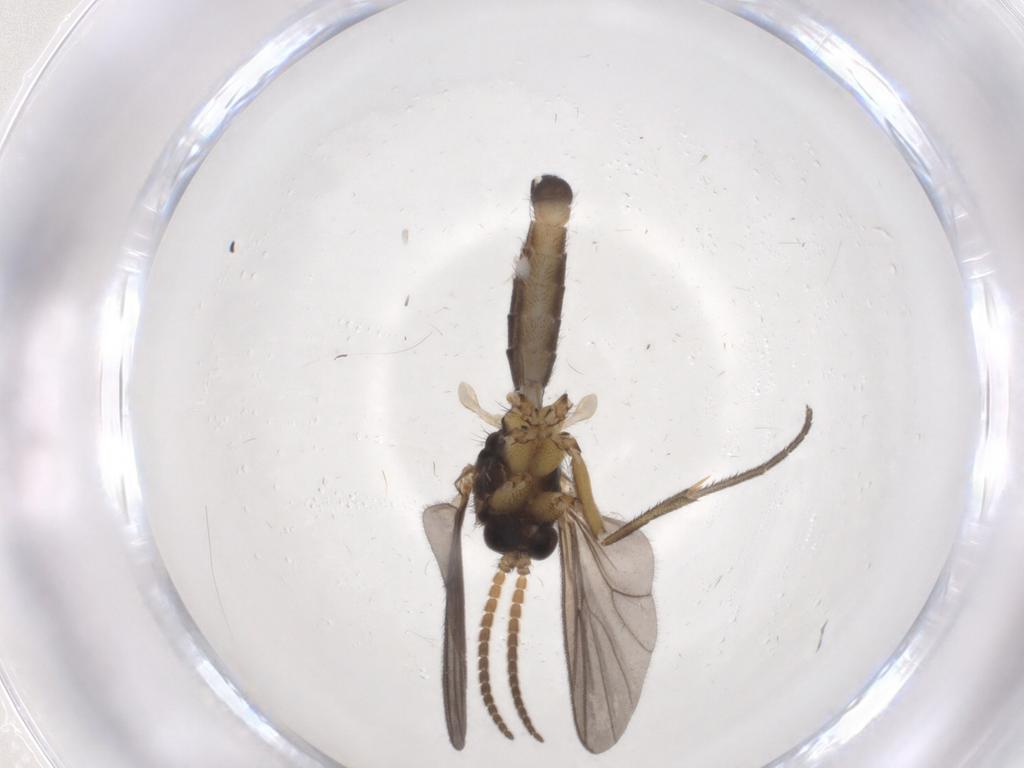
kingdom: Animalia
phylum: Arthropoda
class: Insecta
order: Diptera
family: Mycetophilidae
